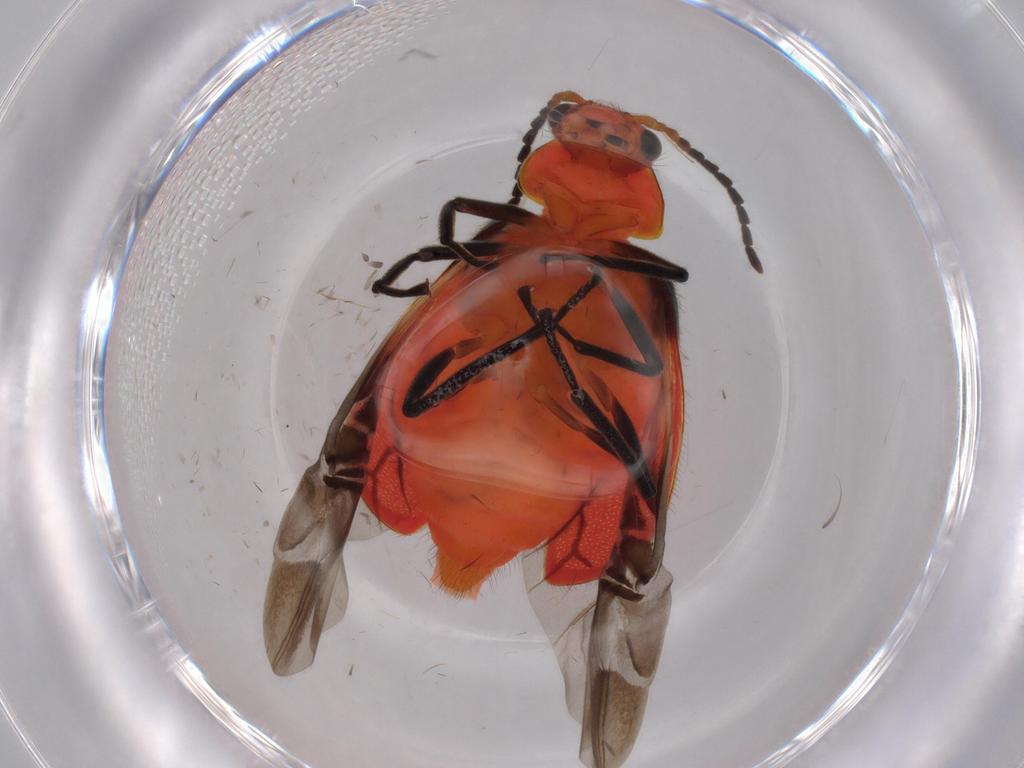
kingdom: Animalia
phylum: Arthropoda
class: Insecta
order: Coleoptera
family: Melyridae
